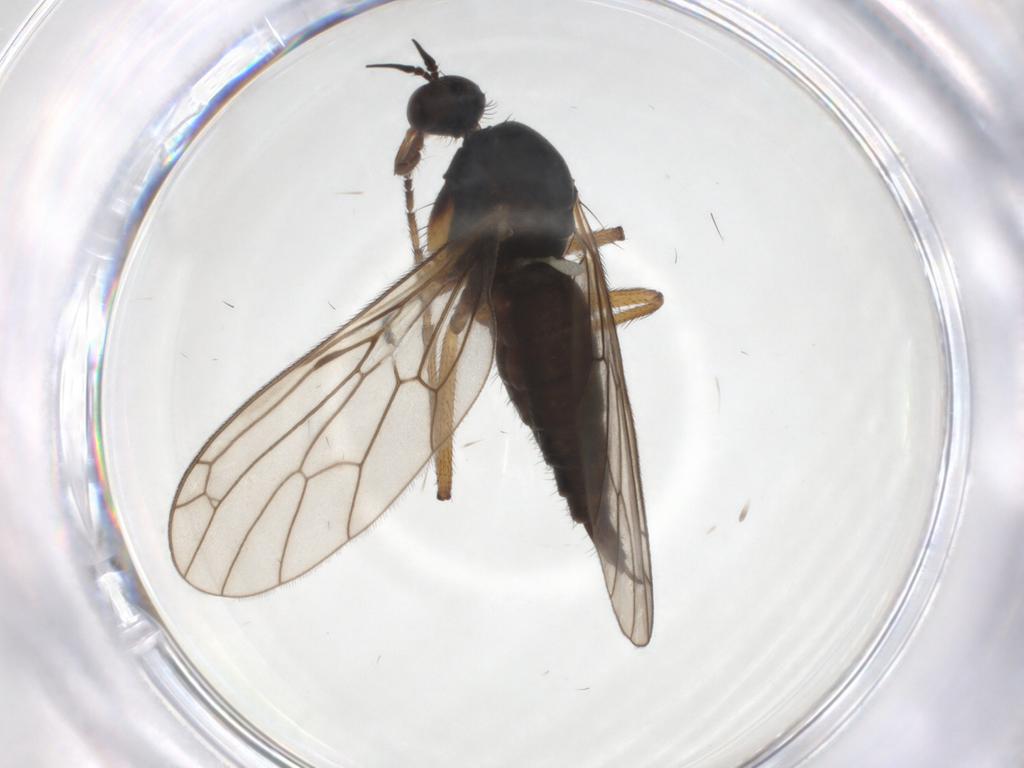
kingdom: Animalia
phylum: Arthropoda
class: Insecta
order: Diptera
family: Empididae
